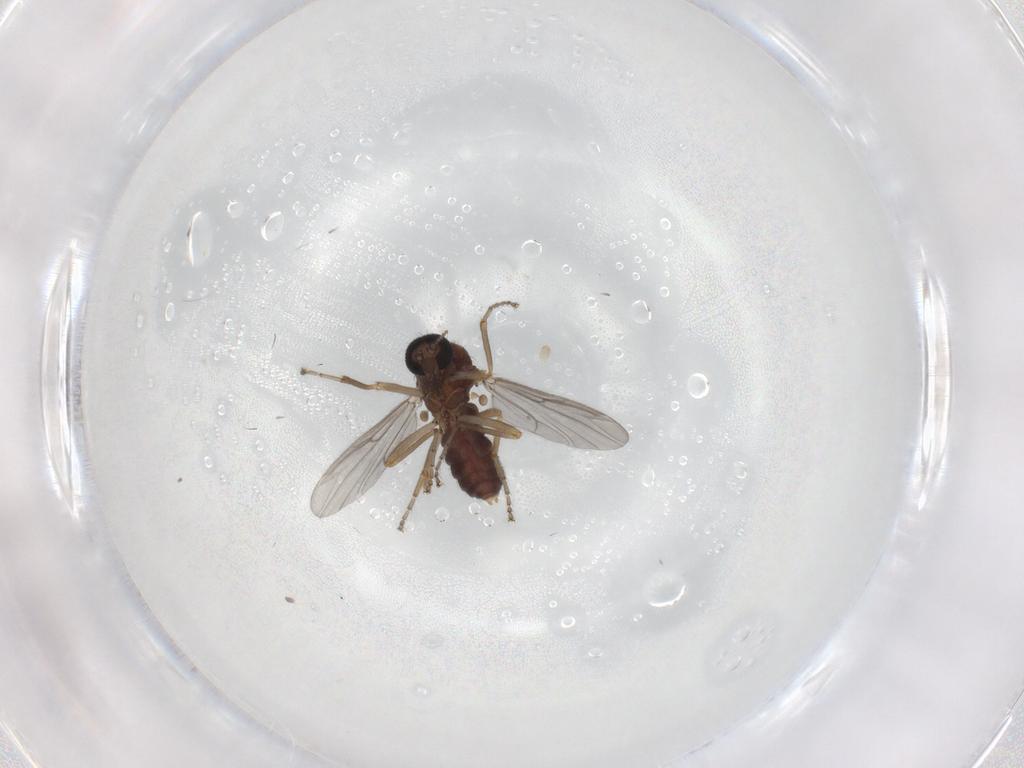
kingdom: Animalia
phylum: Arthropoda
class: Insecta
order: Diptera
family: Ceratopogonidae
